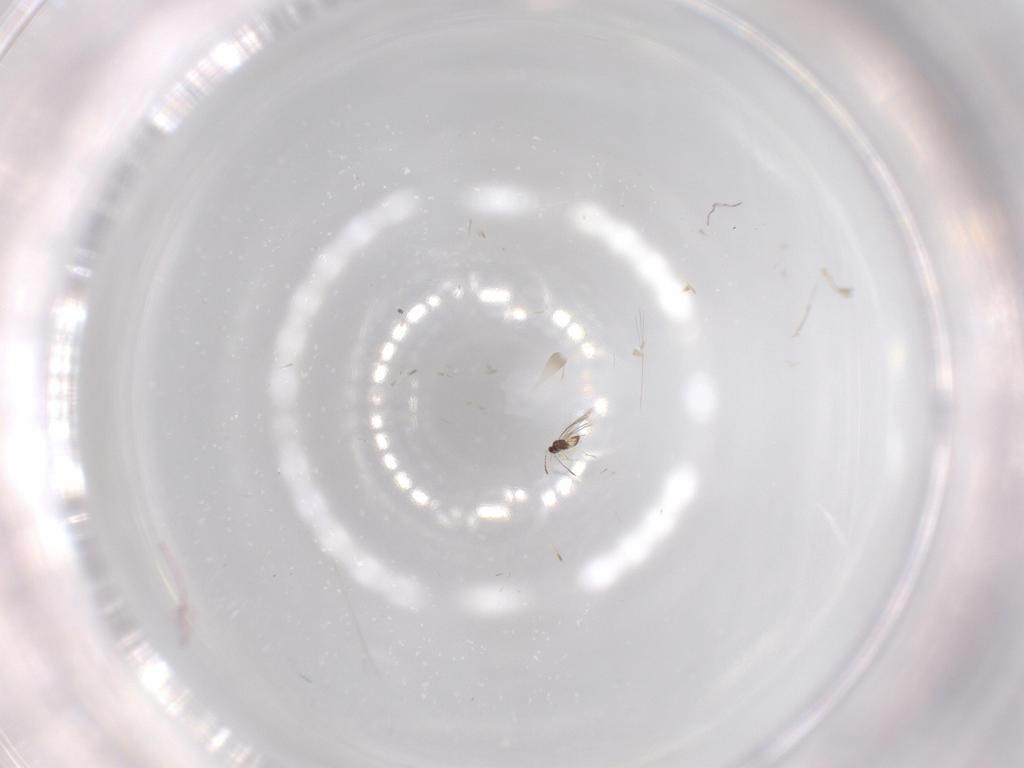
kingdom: Animalia
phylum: Arthropoda
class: Insecta
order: Hymenoptera
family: Mymaridae
